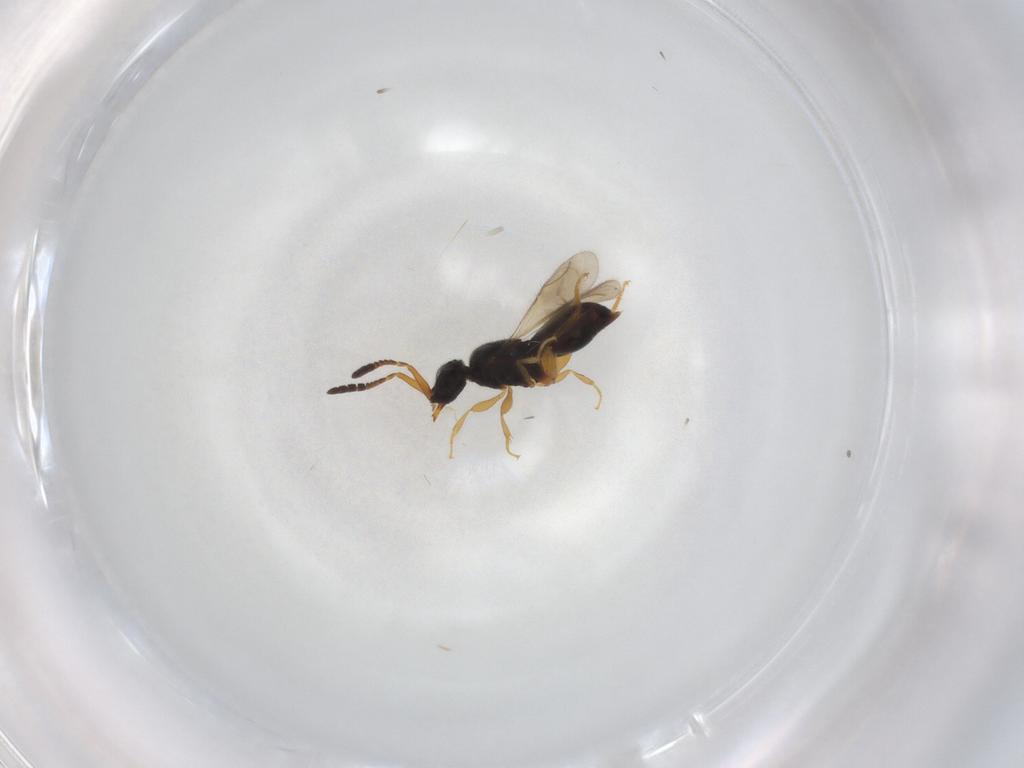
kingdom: Animalia
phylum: Arthropoda
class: Insecta
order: Hymenoptera
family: Ceraphronidae
